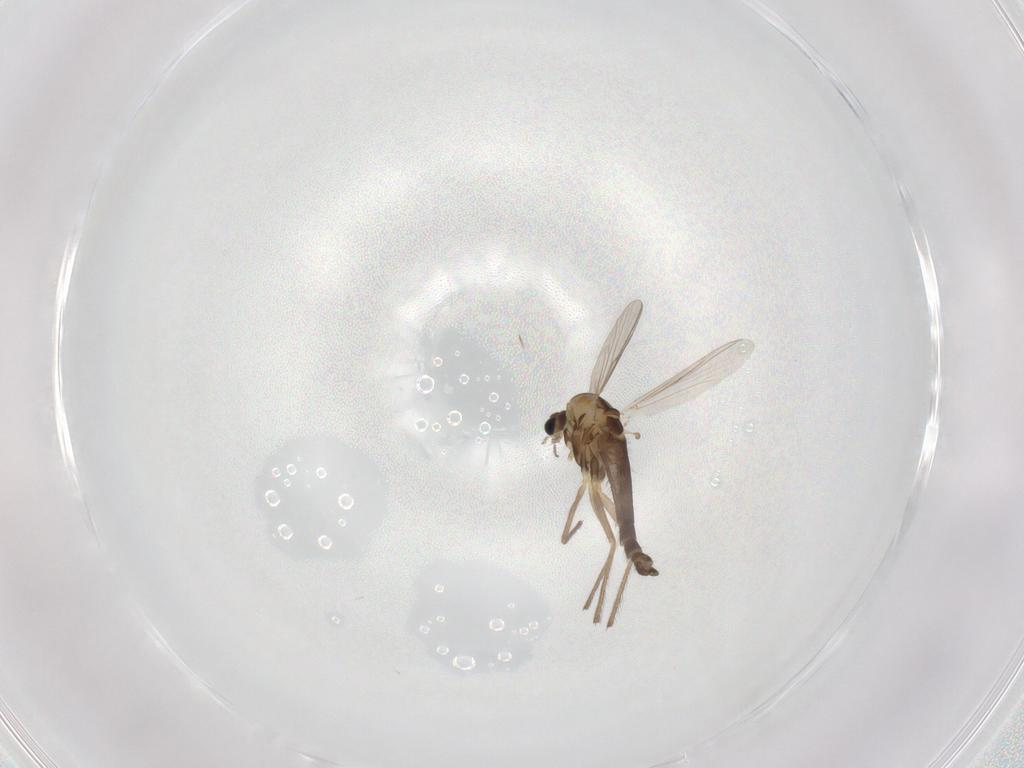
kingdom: Animalia
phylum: Arthropoda
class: Insecta
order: Diptera
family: Chironomidae
